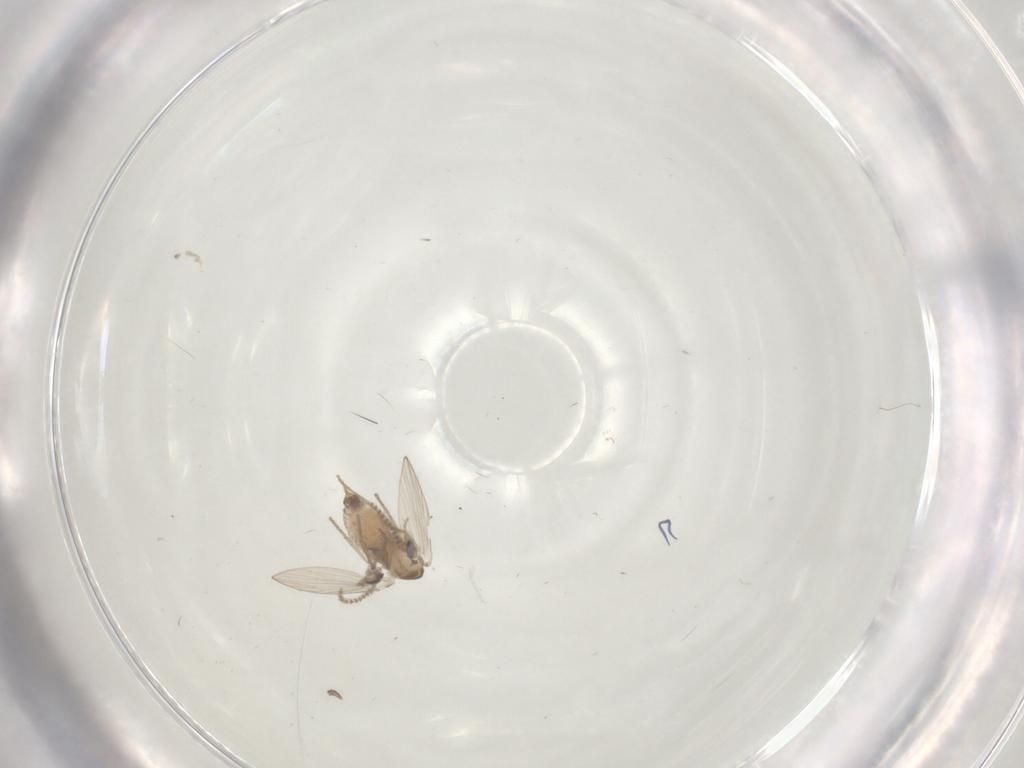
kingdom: Animalia
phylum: Arthropoda
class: Insecta
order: Diptera
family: Psychodidae
